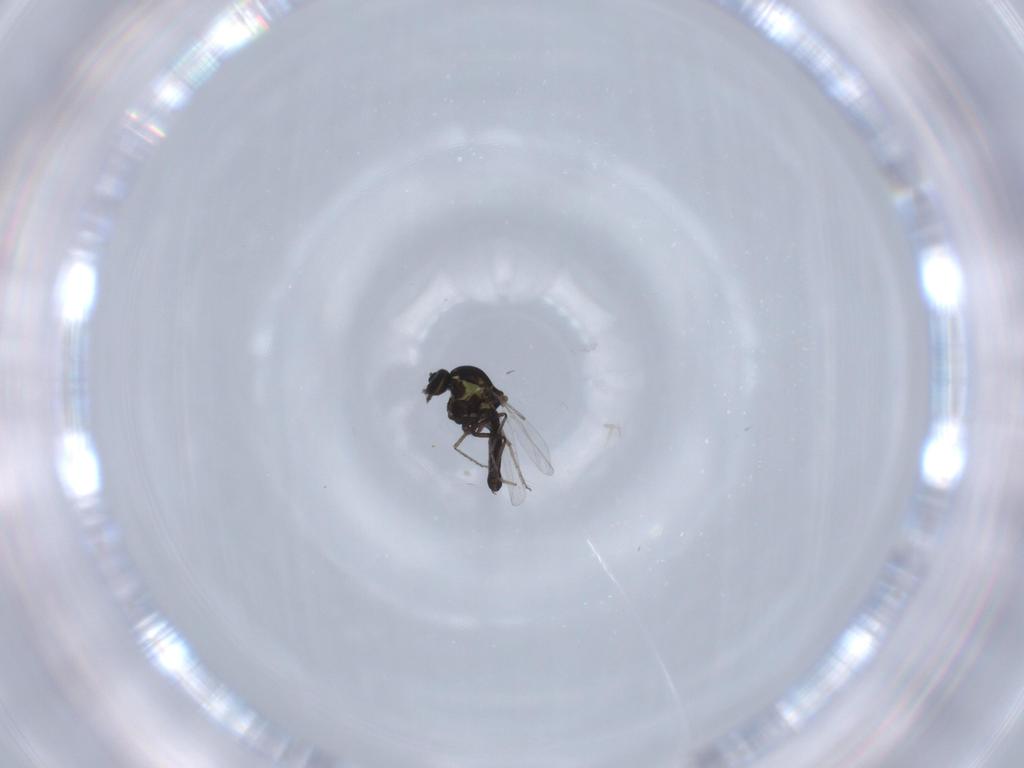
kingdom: Animalia
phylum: Arthropoda
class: Insecta
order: Diptera
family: Ceratopogonidae
